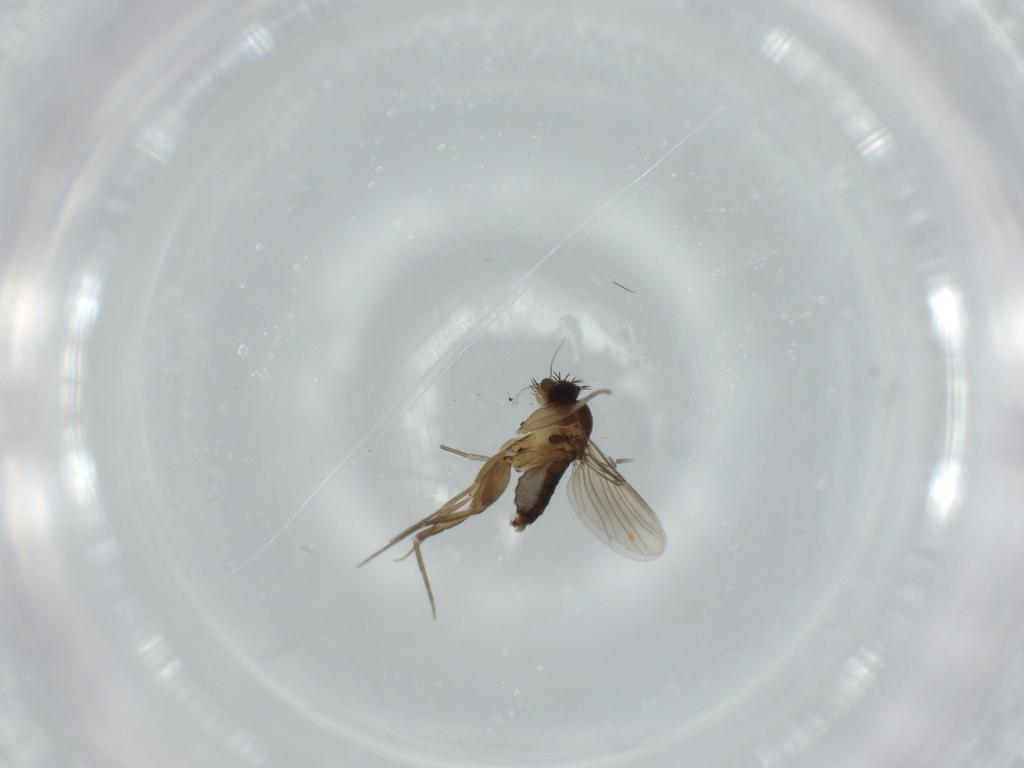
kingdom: Animalia
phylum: Arthropoda
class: Insecta
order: Diptera
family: Phoridae
